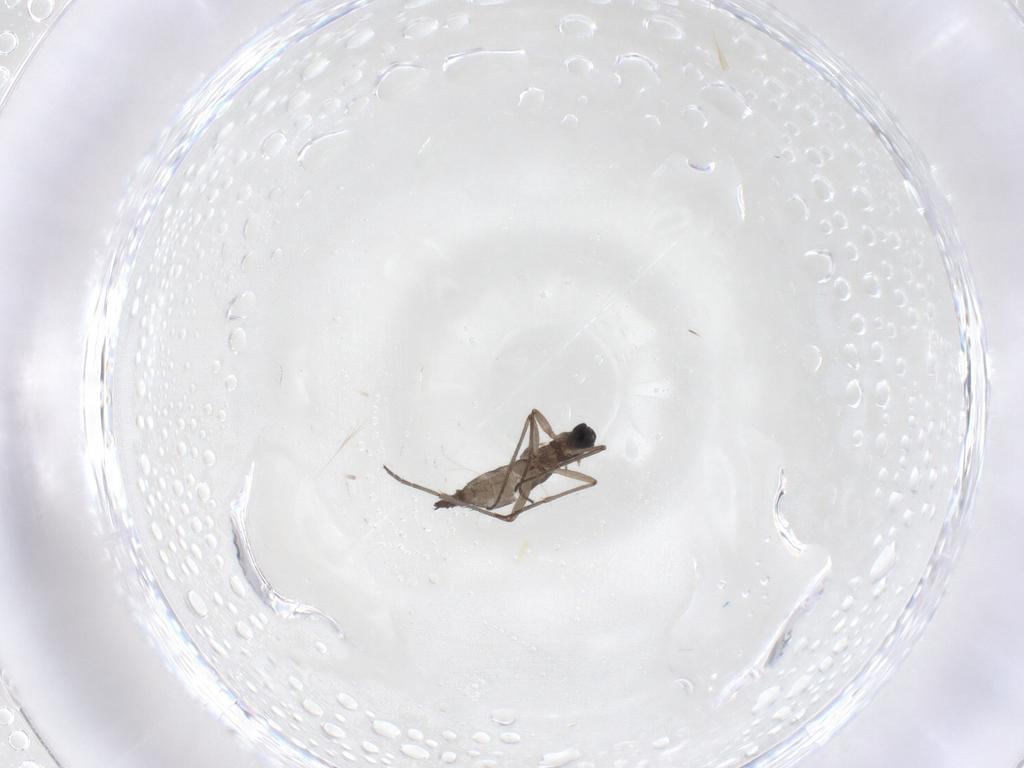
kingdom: Animalia
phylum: Arthropoda
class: Insecta
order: Diptera
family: Sciaridae
